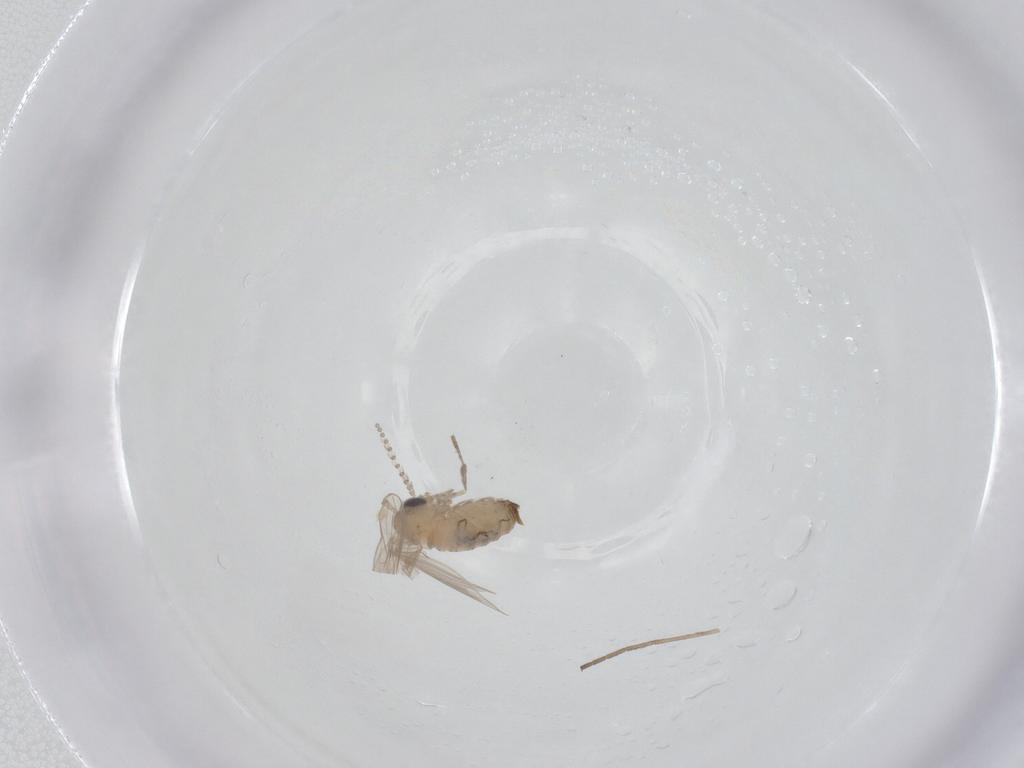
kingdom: Animalia
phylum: Arthropoda
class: Insecta
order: Diptera
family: Psychodidae
